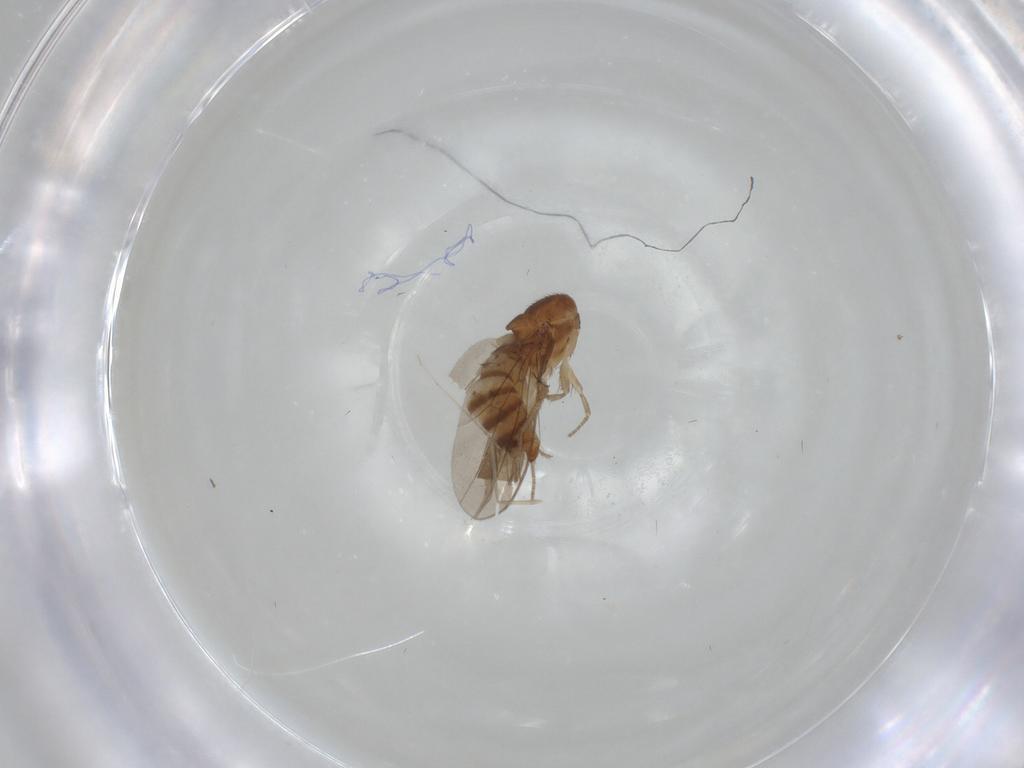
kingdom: Animalia
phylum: Arthropoda
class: Insecta
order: Diptera
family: Drosophilidae
